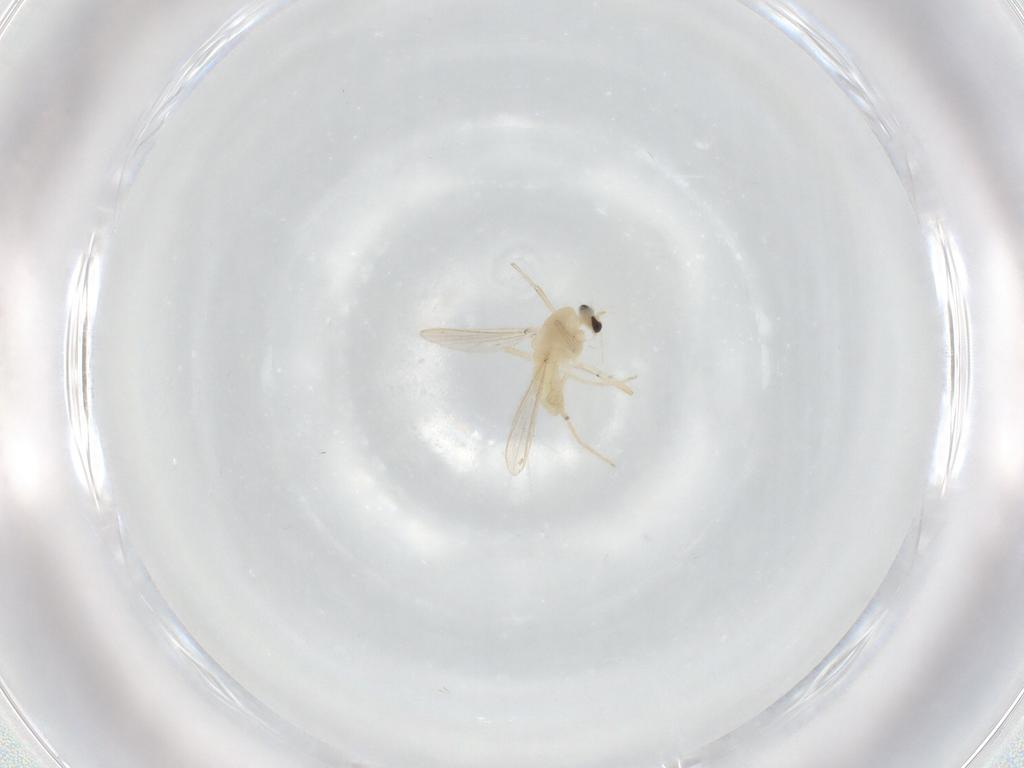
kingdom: Animalia
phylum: Arthropoda
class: Insecta
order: Diptera
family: Chironomidae
